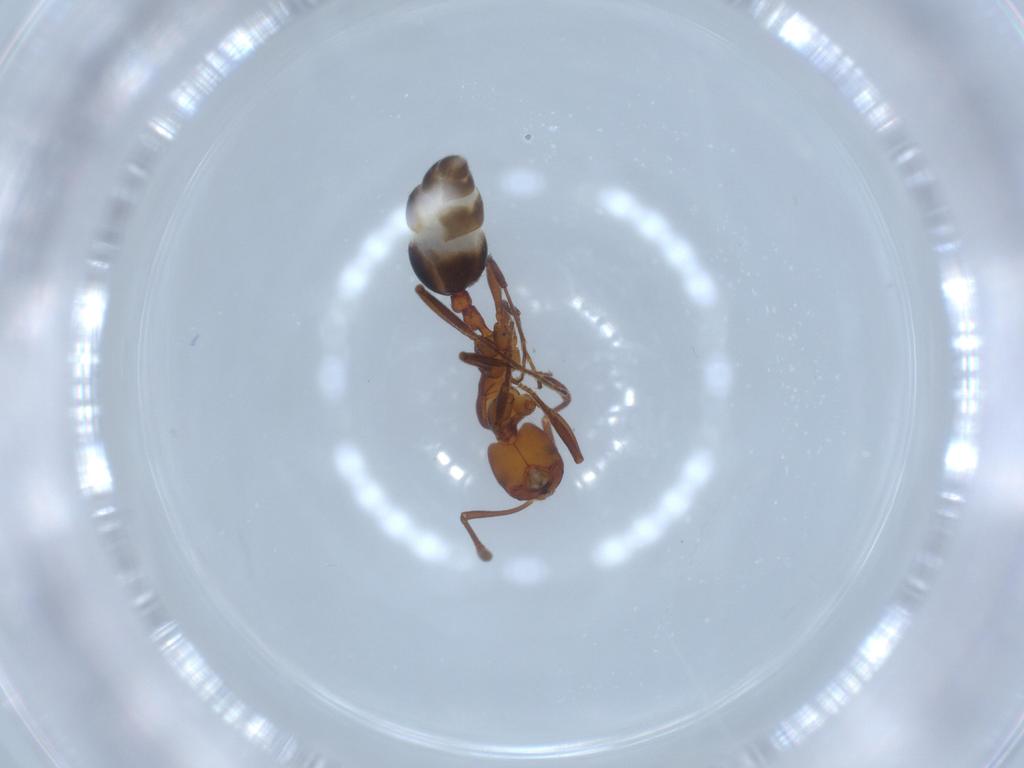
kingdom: Animalia
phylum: Arthropoda
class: Insecta
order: Hymenoptera
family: Formicidae
